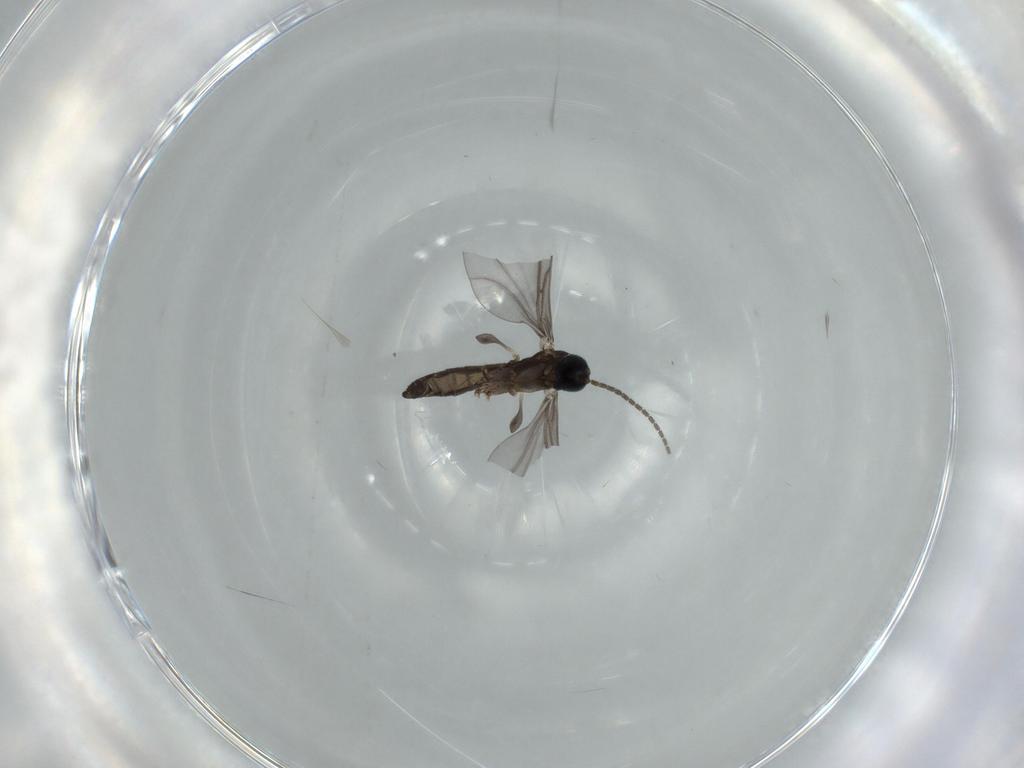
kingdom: Animalia
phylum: Arthropoda
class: Insecta
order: Diptera
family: Sciaridae
